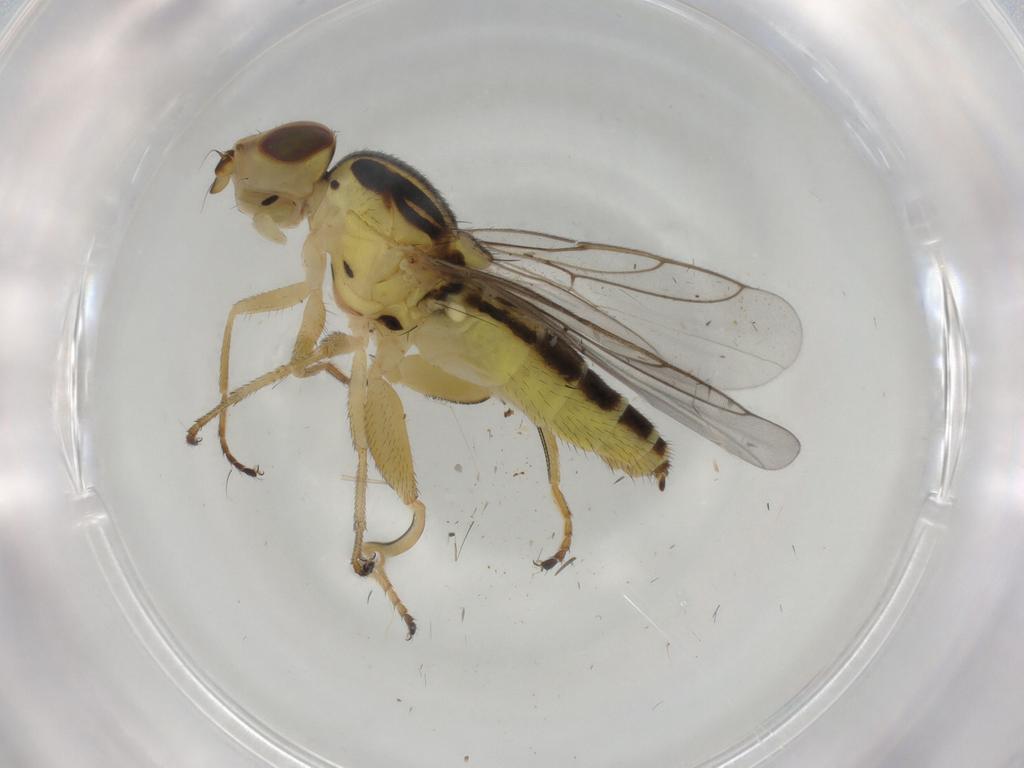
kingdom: Animalia
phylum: Arthropoda
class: Insecta
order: Diptera
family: Chloropidae
